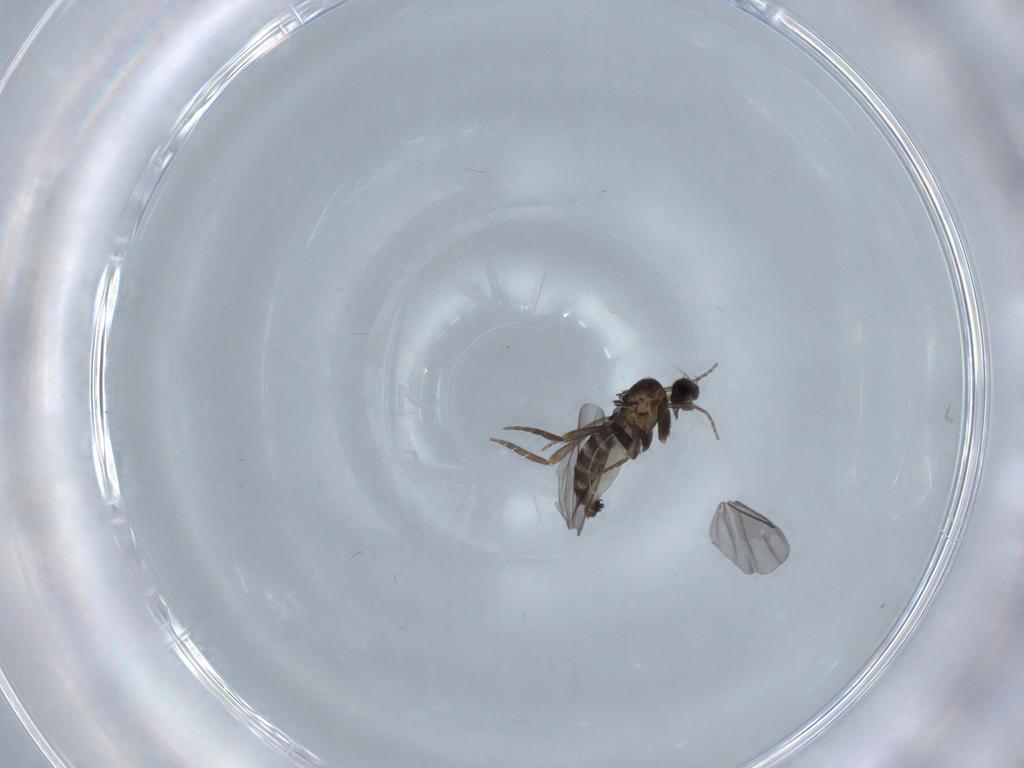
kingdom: Animalia
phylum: Arthropoda
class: Insecta
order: Diptera
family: Phoridae
